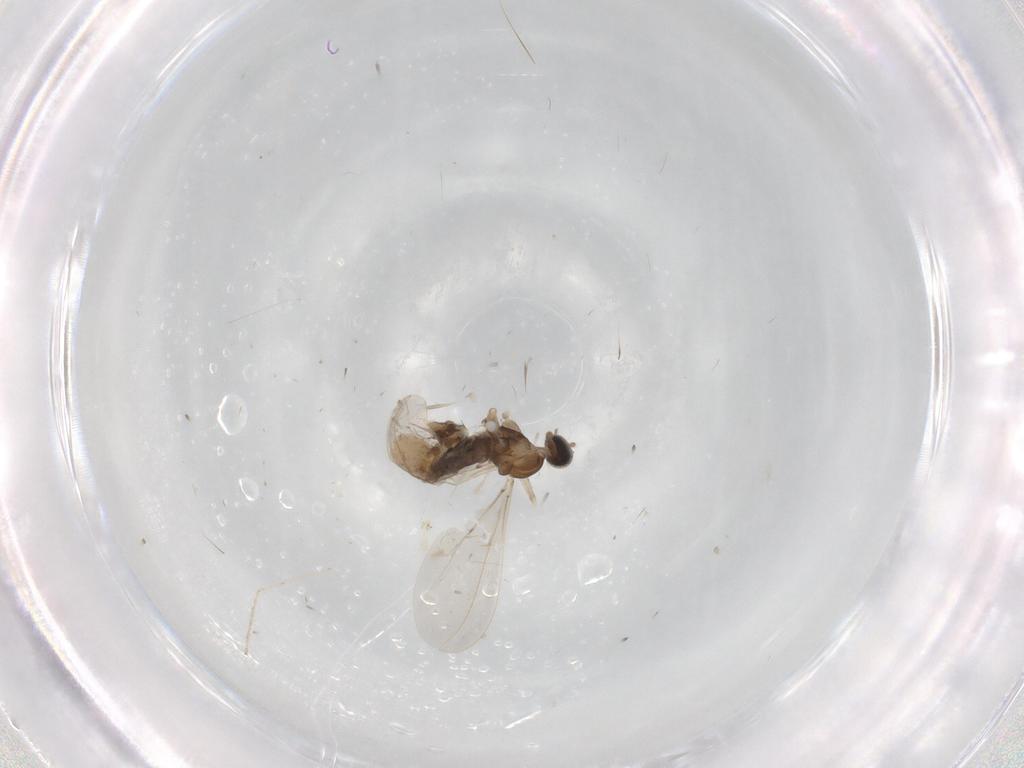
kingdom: Animalia
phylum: Arthropoda
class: Insecta
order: Diptera
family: Cecidomyiidae
